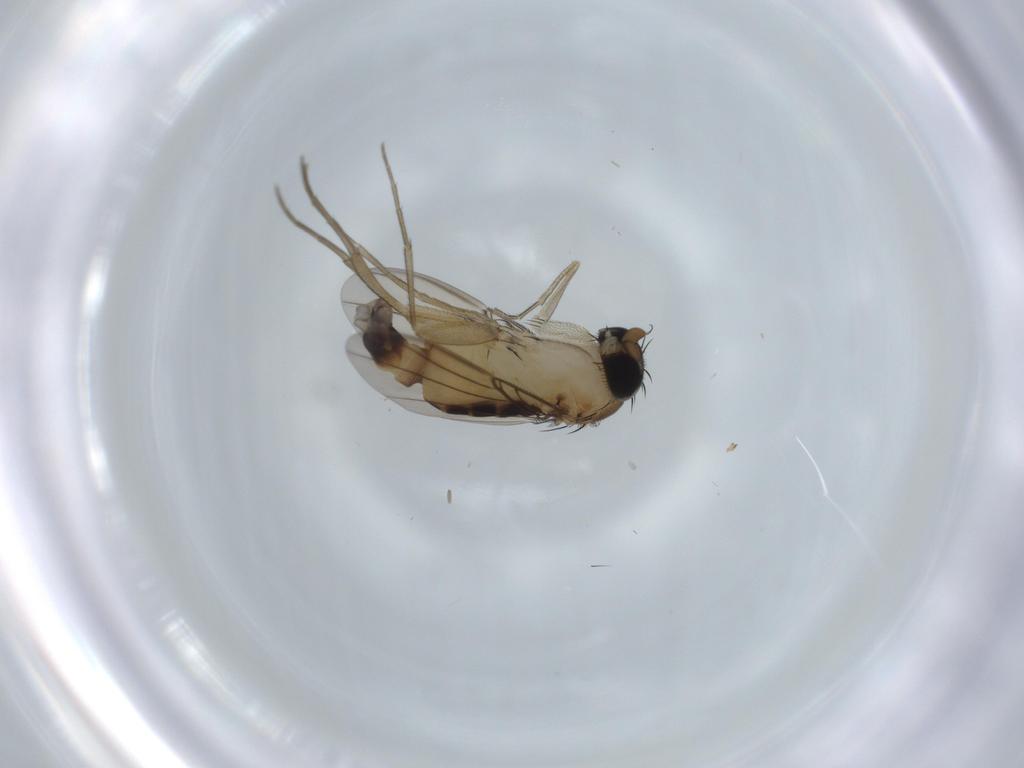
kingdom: Animalia
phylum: Arthropoda
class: Insecta
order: Diptera
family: Phoridae
